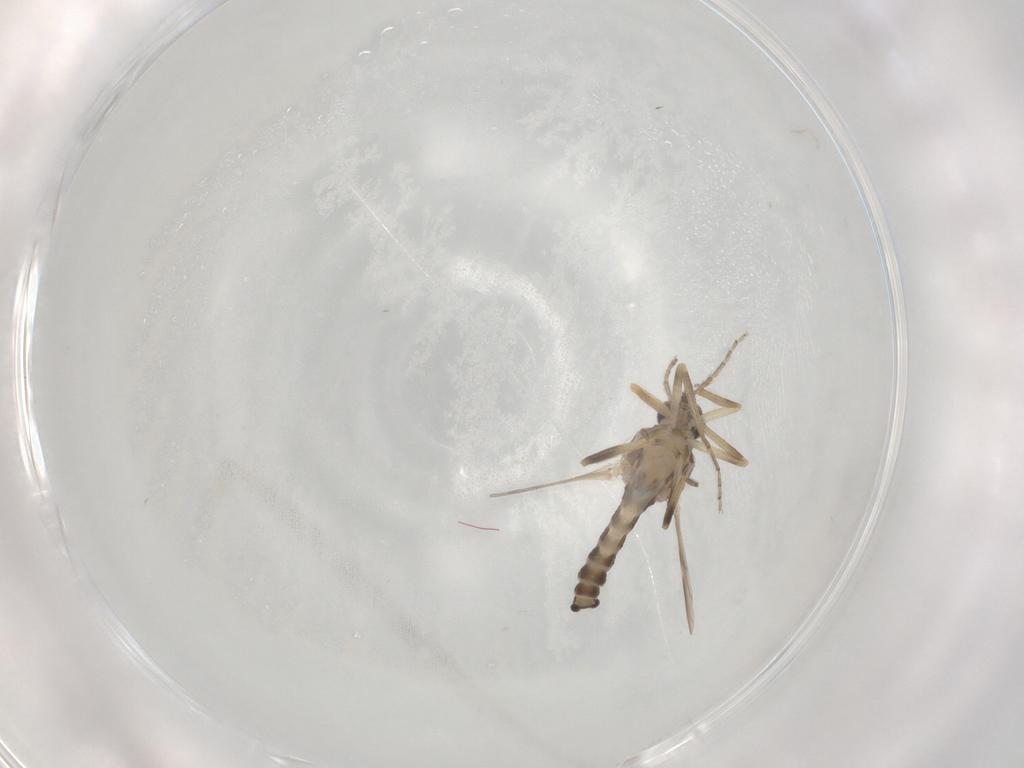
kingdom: Animalia
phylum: Arthropoda
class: Insecta
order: Diptera
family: Ceratopogonidae
